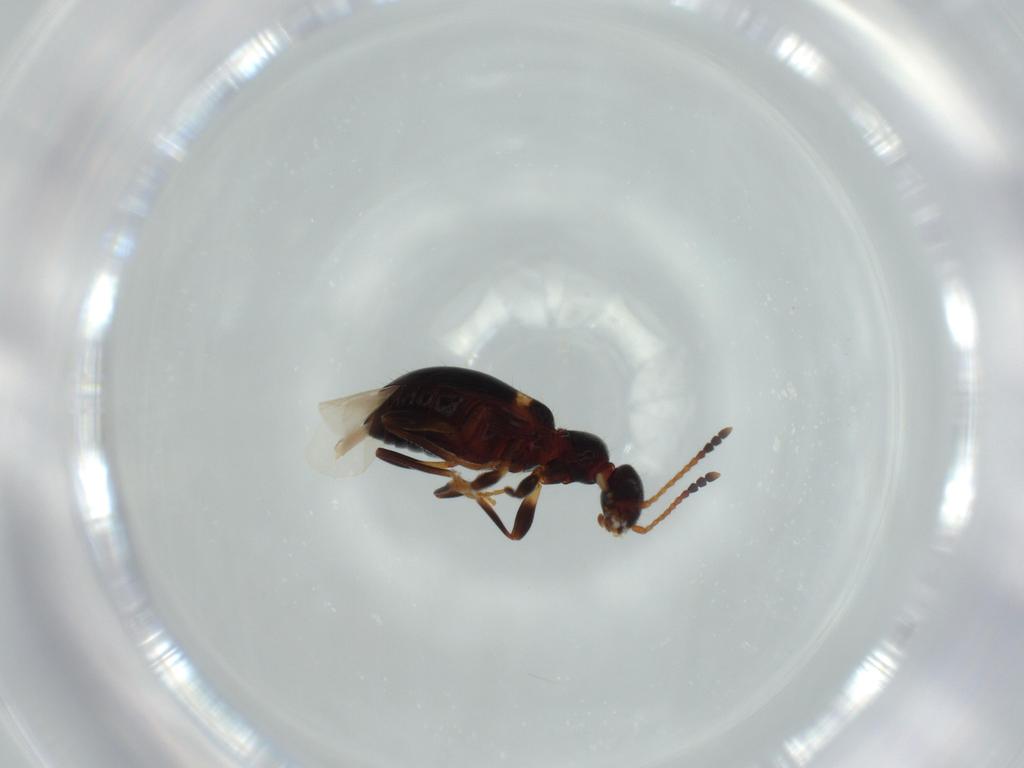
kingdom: Animalia
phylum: Arthropoda
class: Insecta
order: Coleoptera
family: Anthicidae
